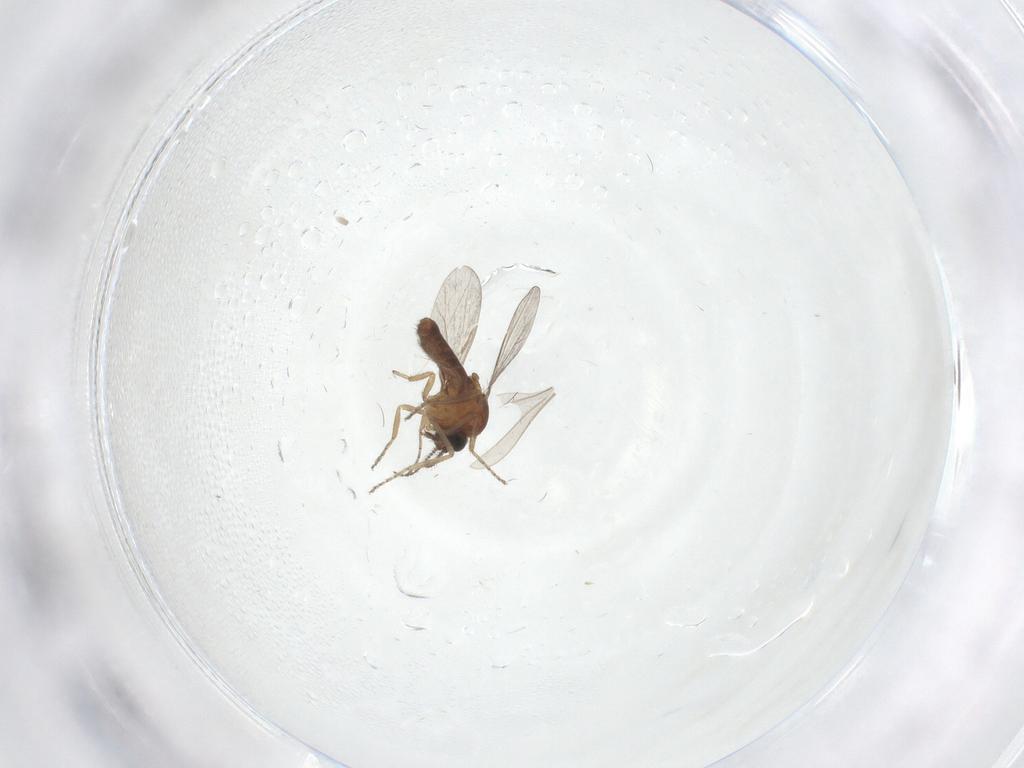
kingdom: Animalia
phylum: Arthropoda
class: Insecta
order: Diptera
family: Ceratopogonidae
